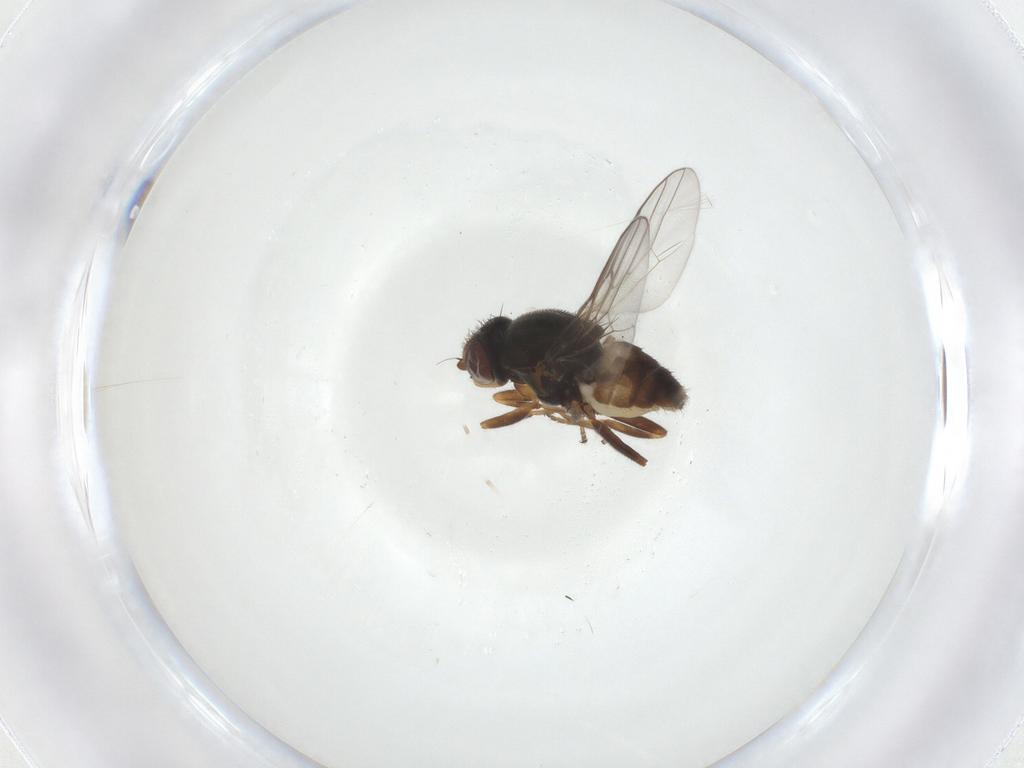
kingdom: Animalia
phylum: Arthropoda
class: Insecta
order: Diptera
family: Chloropidae
